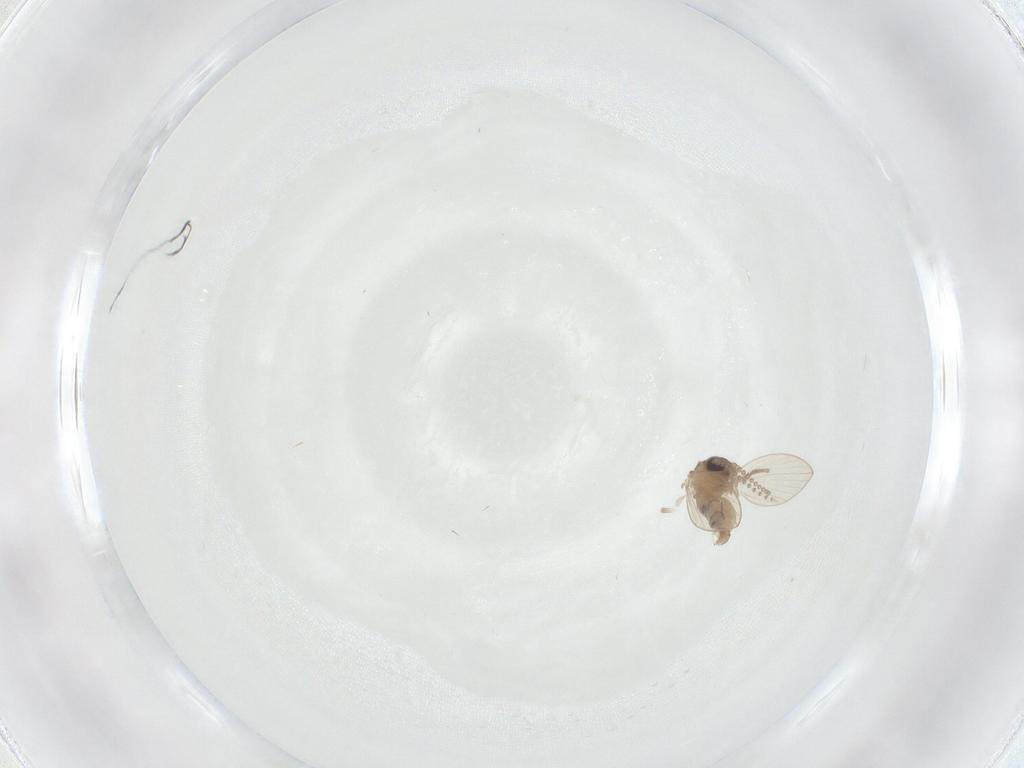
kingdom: Animalia
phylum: Arthropoda
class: Insecta
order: Diptera
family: Psychodidae
